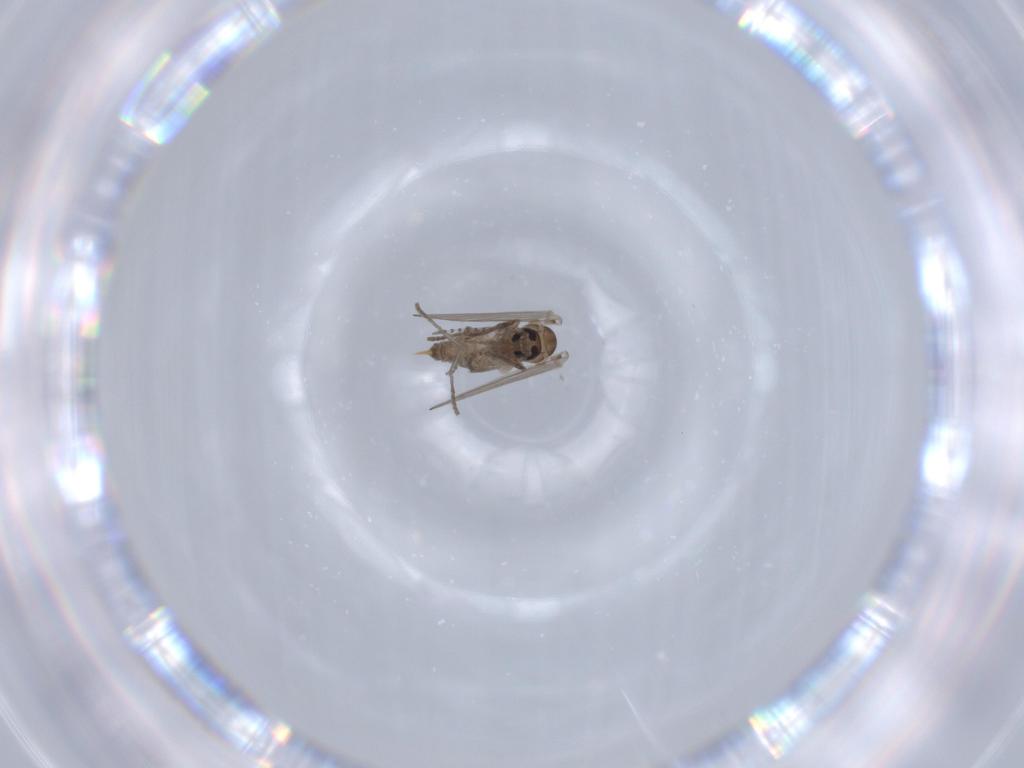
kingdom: Animalia
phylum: Arthropoda
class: Insecta
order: Diptera
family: Psychodidae
